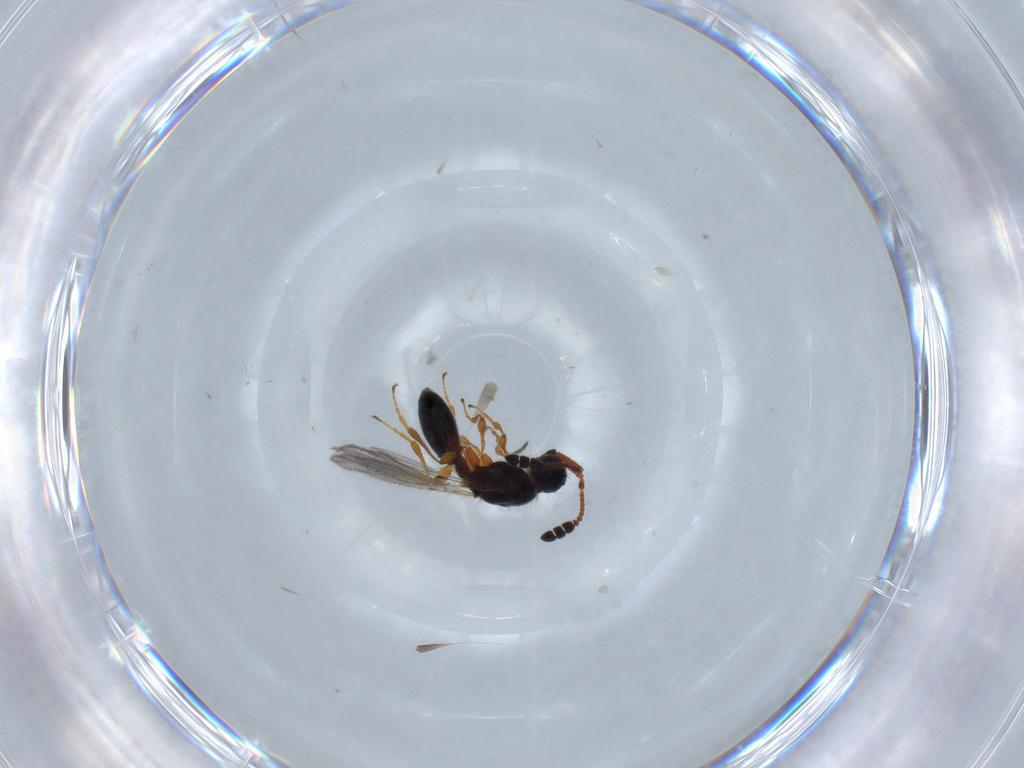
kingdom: Animalia
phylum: Arthropoda
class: Insecta
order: Hymenoptera
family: Diapriidae
